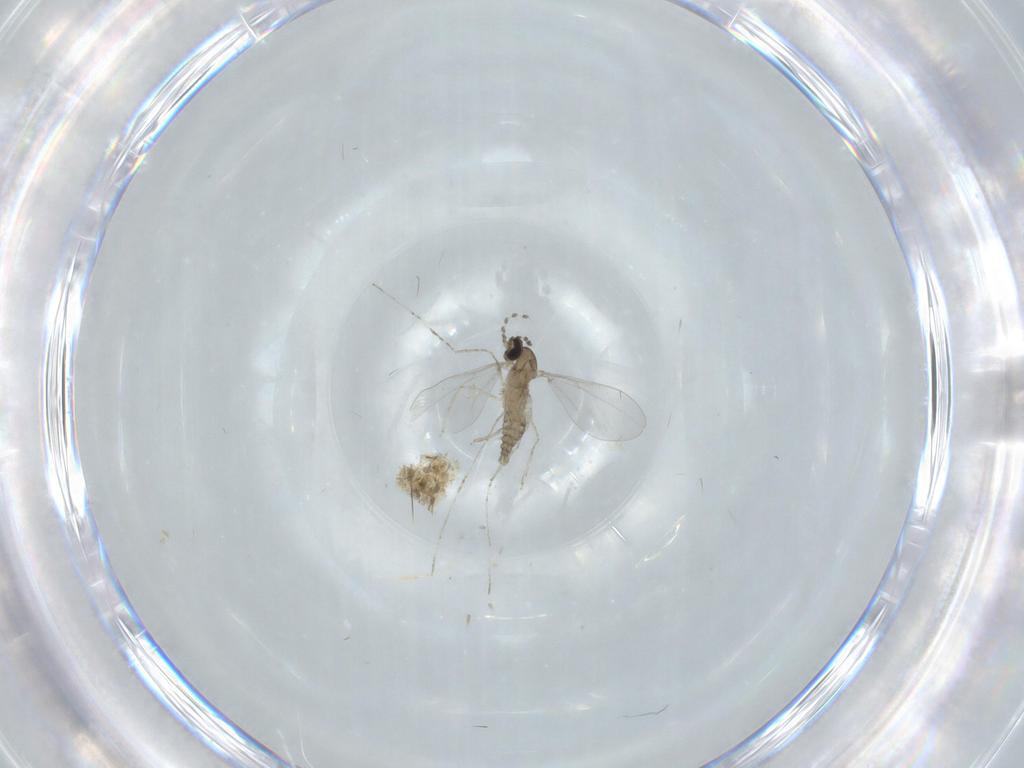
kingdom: Animalia
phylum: Arthropoda
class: Insecta
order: Diptera
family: Cecidomyiidae
